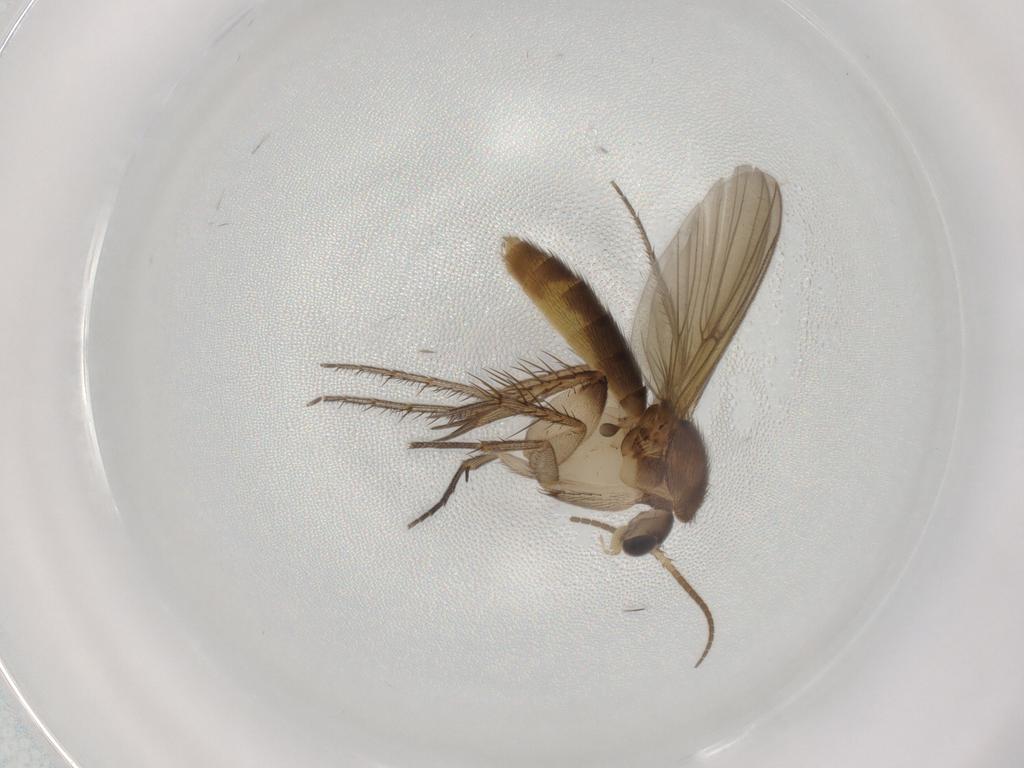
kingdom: Animalia
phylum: Arthropoda
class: Insecta
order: Diptera
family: Mycetophilidae
